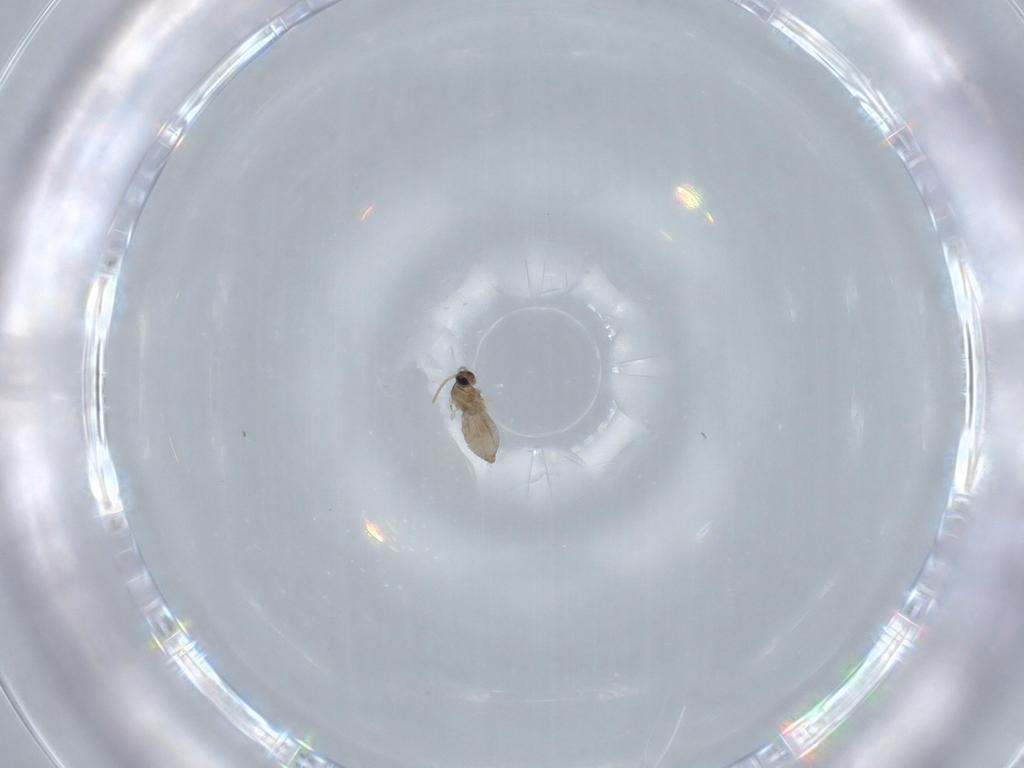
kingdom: Animalia
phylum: Arthropoda
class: Insecta
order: Diptera
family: Cecidomyiidae
